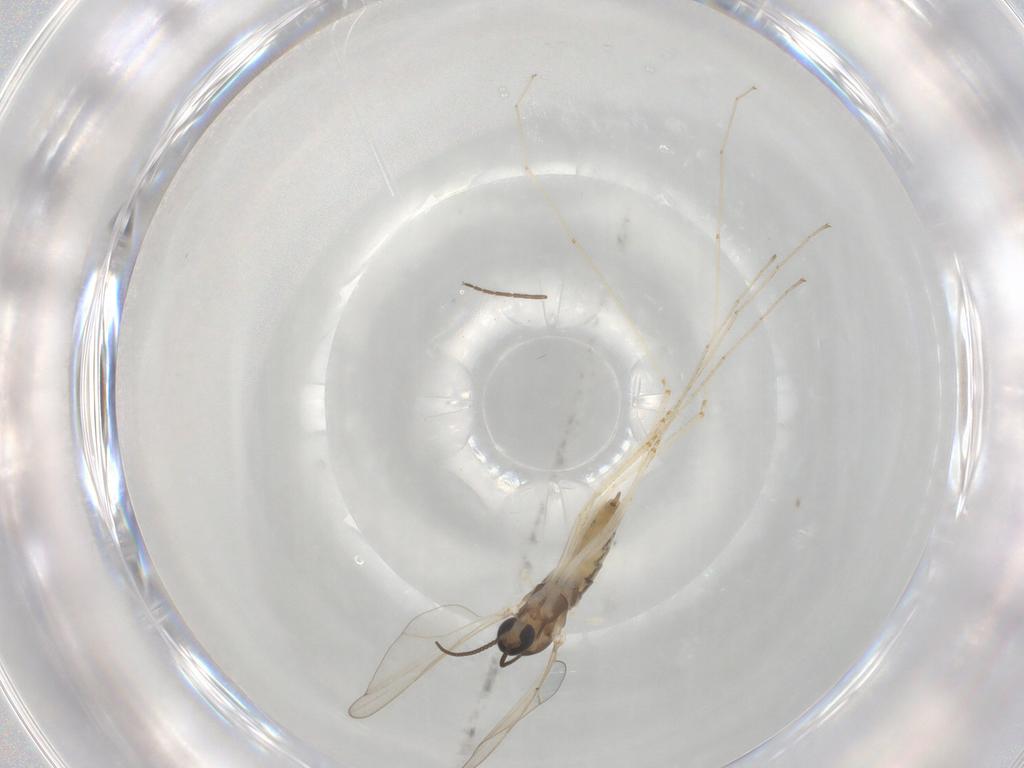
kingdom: Animalia
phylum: Arthropoda
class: Insecta
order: Diptera
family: Cecidomyiidae
